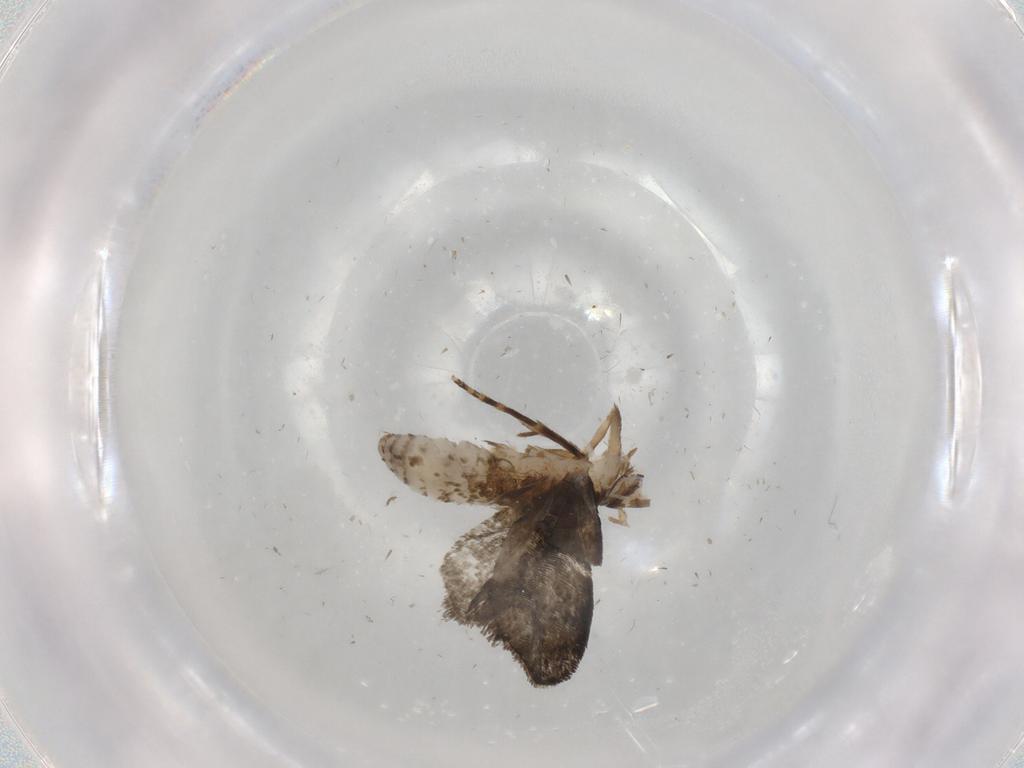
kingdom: Animalia
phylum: Arthropoda
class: Insecta
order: Lepidoptera
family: Tineidae
